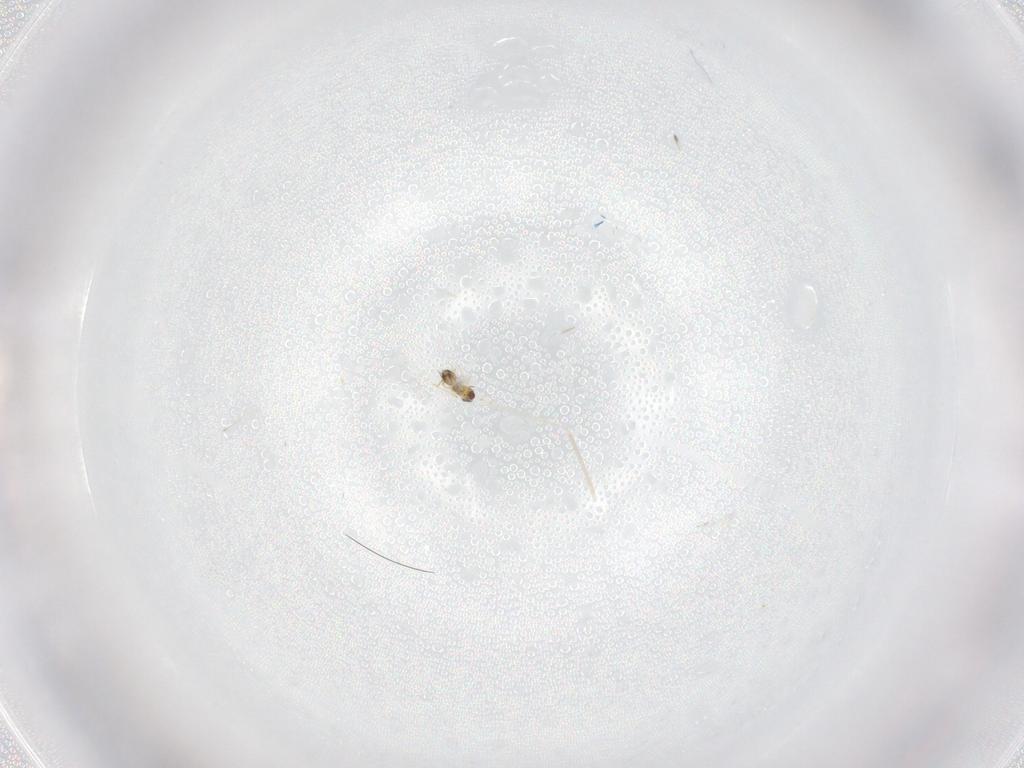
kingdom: Animalia
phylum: Arthropoda
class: Insecta
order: Diptera
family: Cecidomyiidae
